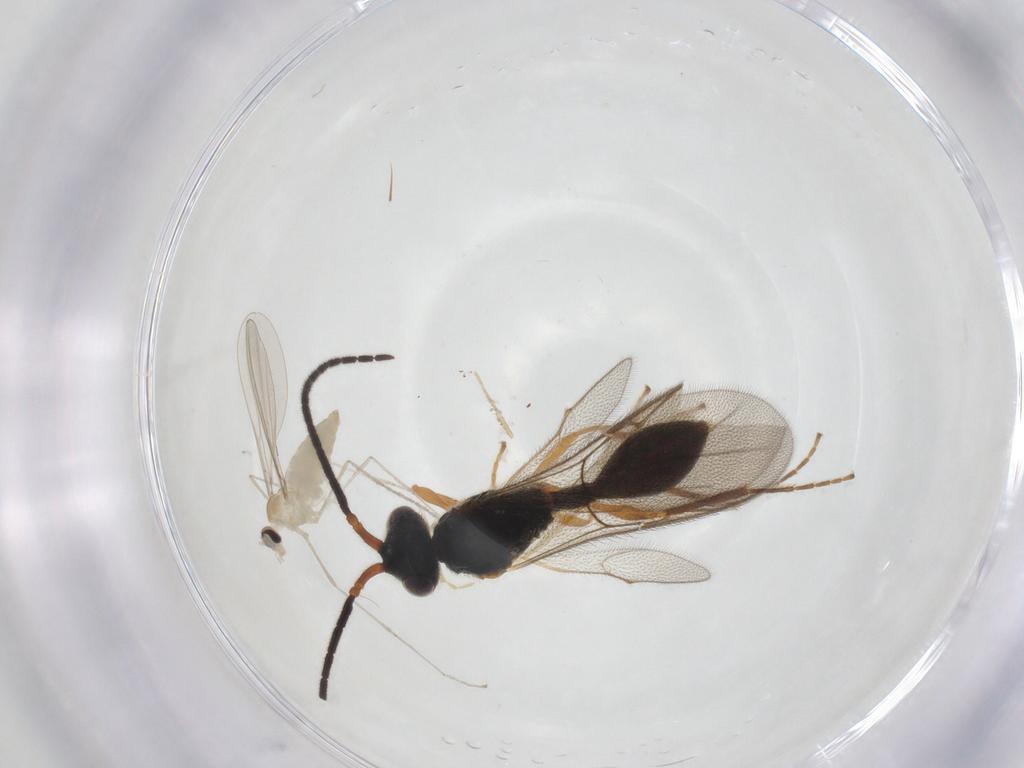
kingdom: Animalia
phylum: Arthropoda
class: Insecta
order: Diptera
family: Cecidomyiidae
